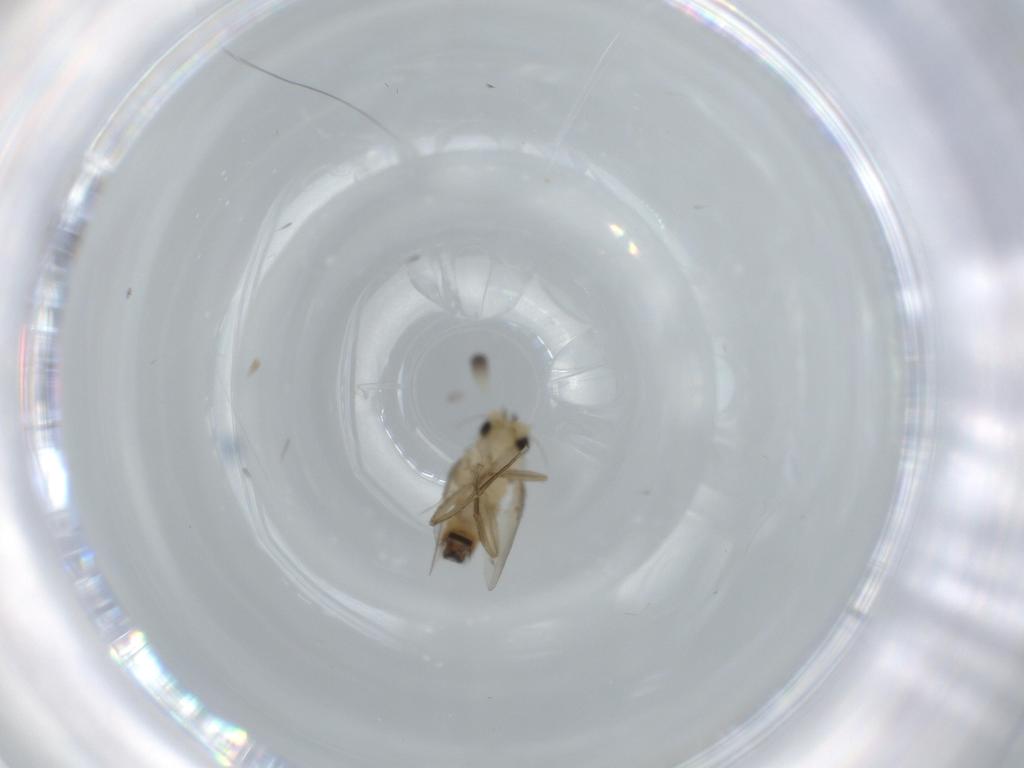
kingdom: Animalia
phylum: Arthropoda
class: Insecta
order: Diptera
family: Phoridae
